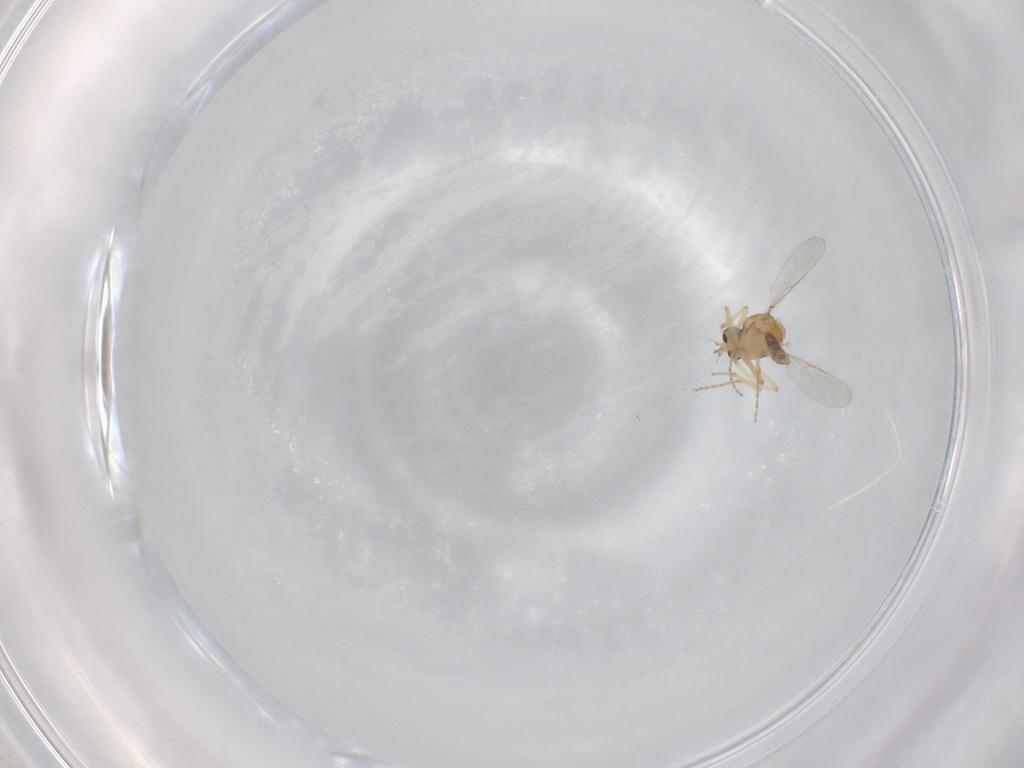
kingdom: Animalia
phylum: Arthropoda
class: Insecta
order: Diptera
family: Ceratopogonidae
